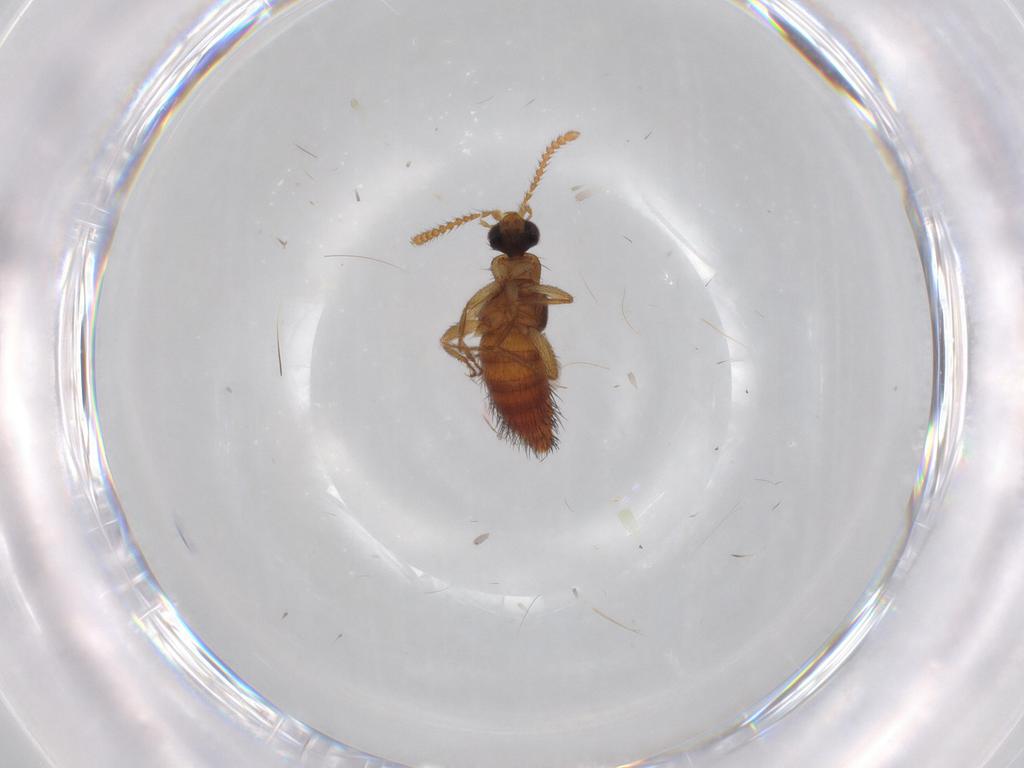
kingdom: Animalia
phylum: Arthropoda
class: Insecta
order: Coleoptera
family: Staphylinidae
